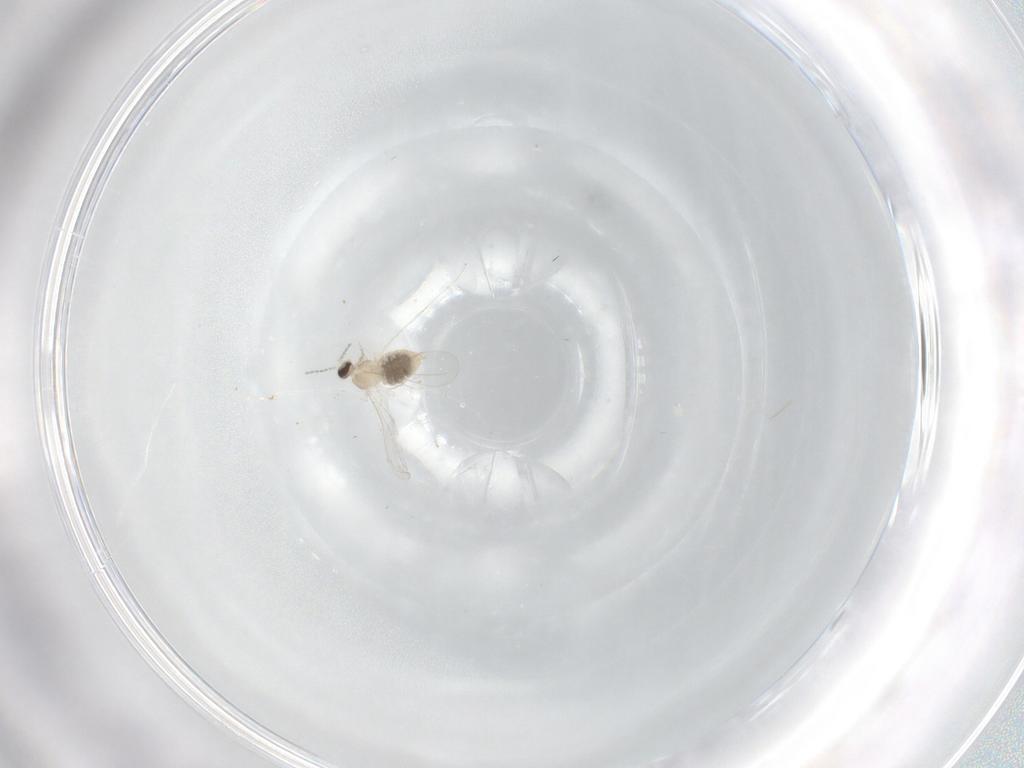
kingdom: Animalia
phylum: Arthropoda
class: Insecta
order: Diptera
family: Cecidomyiidae
